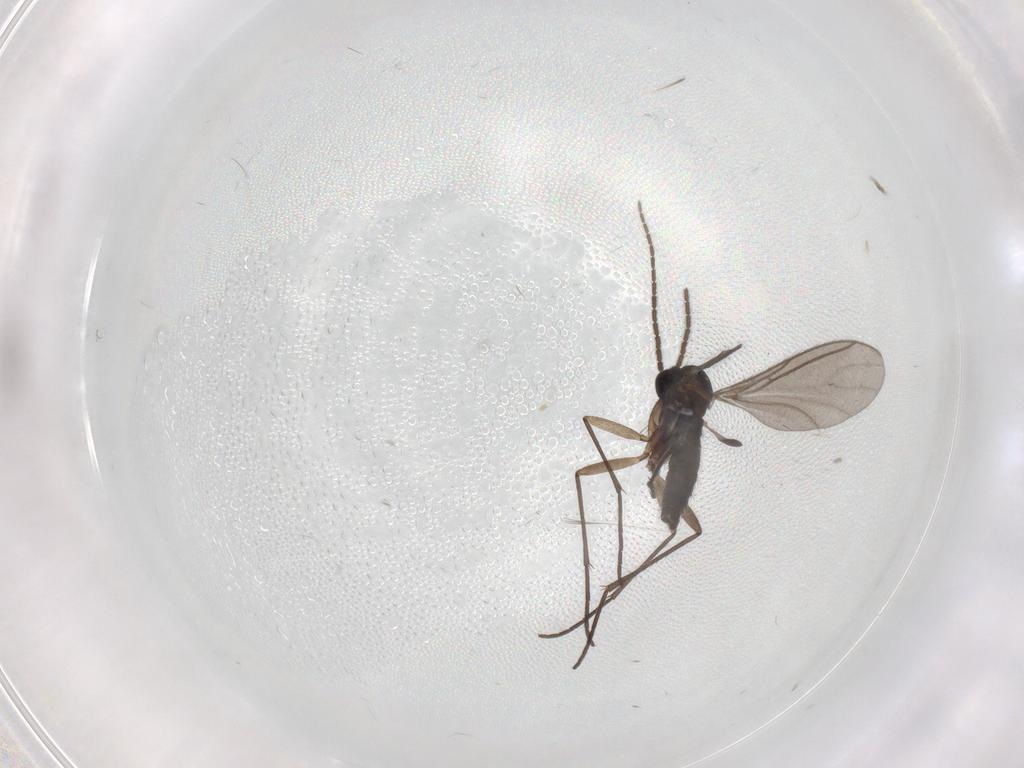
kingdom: Animalia
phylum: Arthropoda
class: Insecta
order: Diptera
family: Sciaridae
